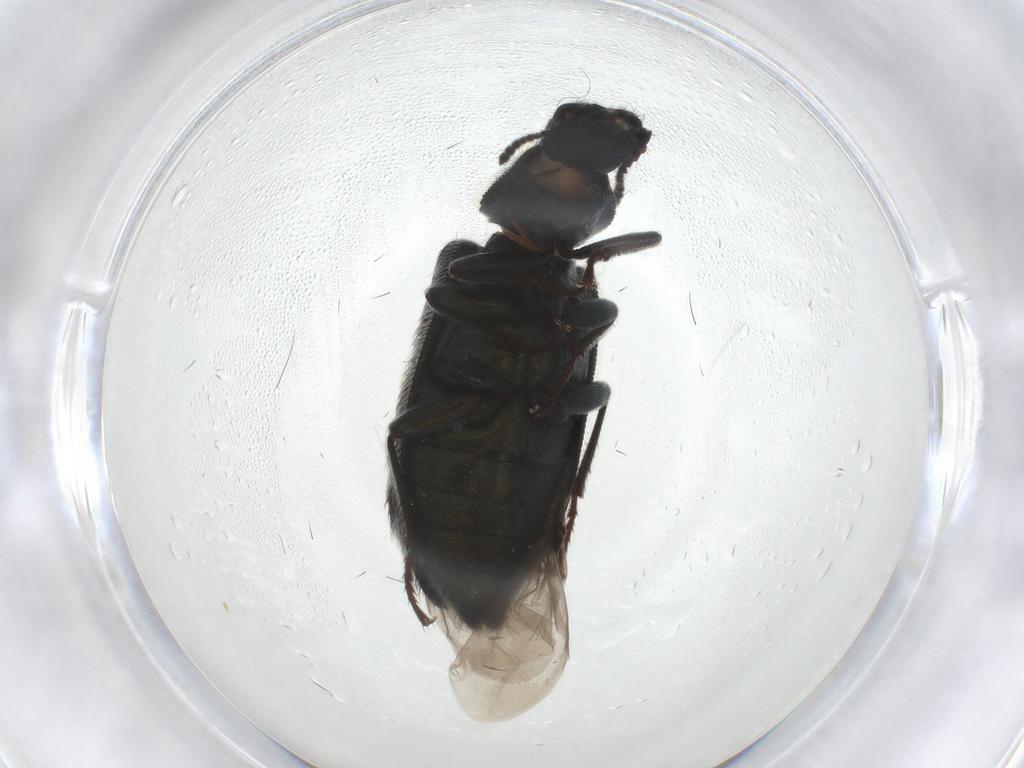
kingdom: Animalia
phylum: Arthropoda
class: Insecta
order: Coleoptera
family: Melyridae
